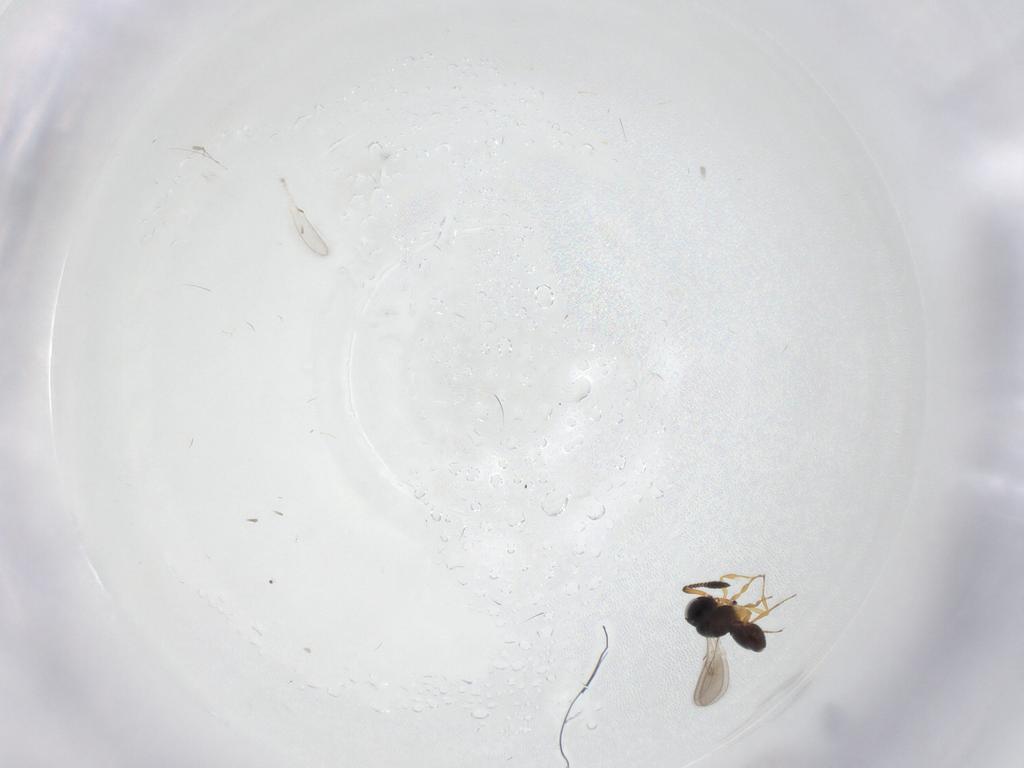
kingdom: Animalia
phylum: Arthropoda
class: Insecta
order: Hymenoptera
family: Scelionidae
